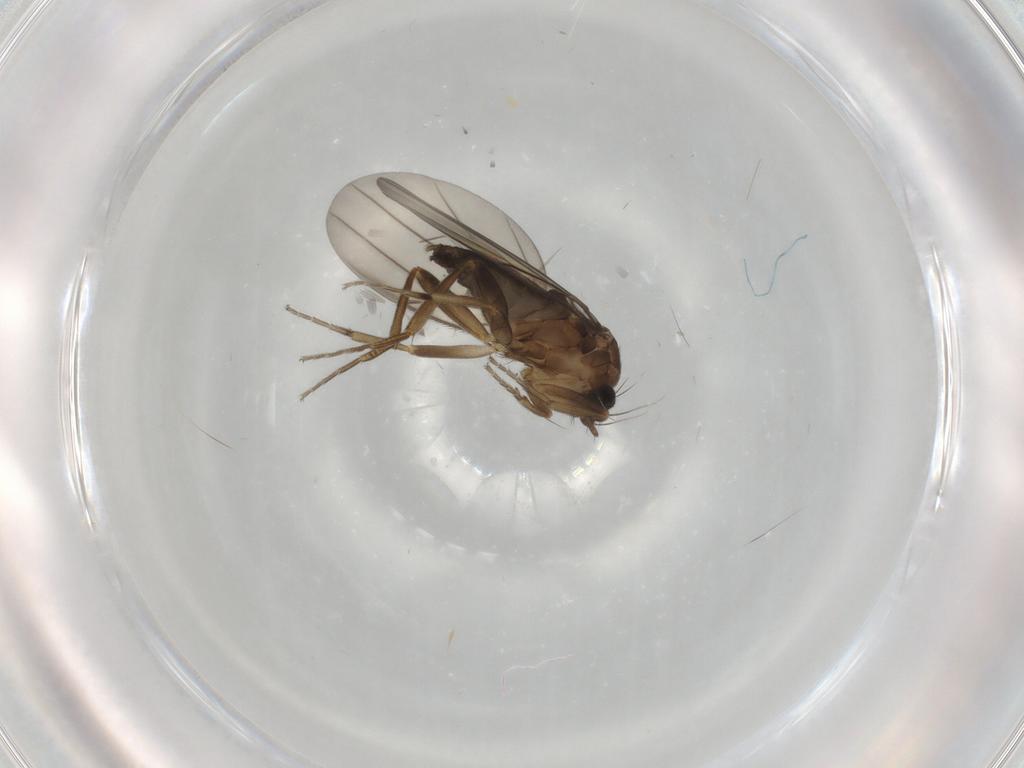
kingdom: Animalia
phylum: Arthropoda
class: Insecta
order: Diptera
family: Phoridae
